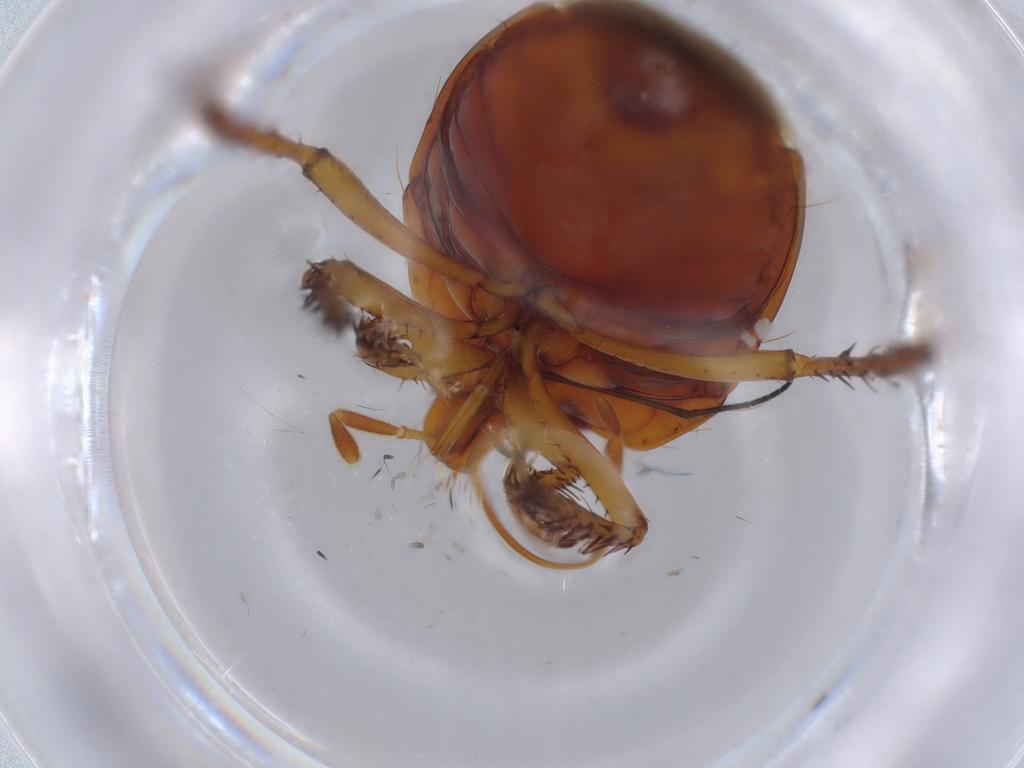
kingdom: Animalia
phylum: Arthropoda
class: Insecta
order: Hemiptera
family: Cydnidae
